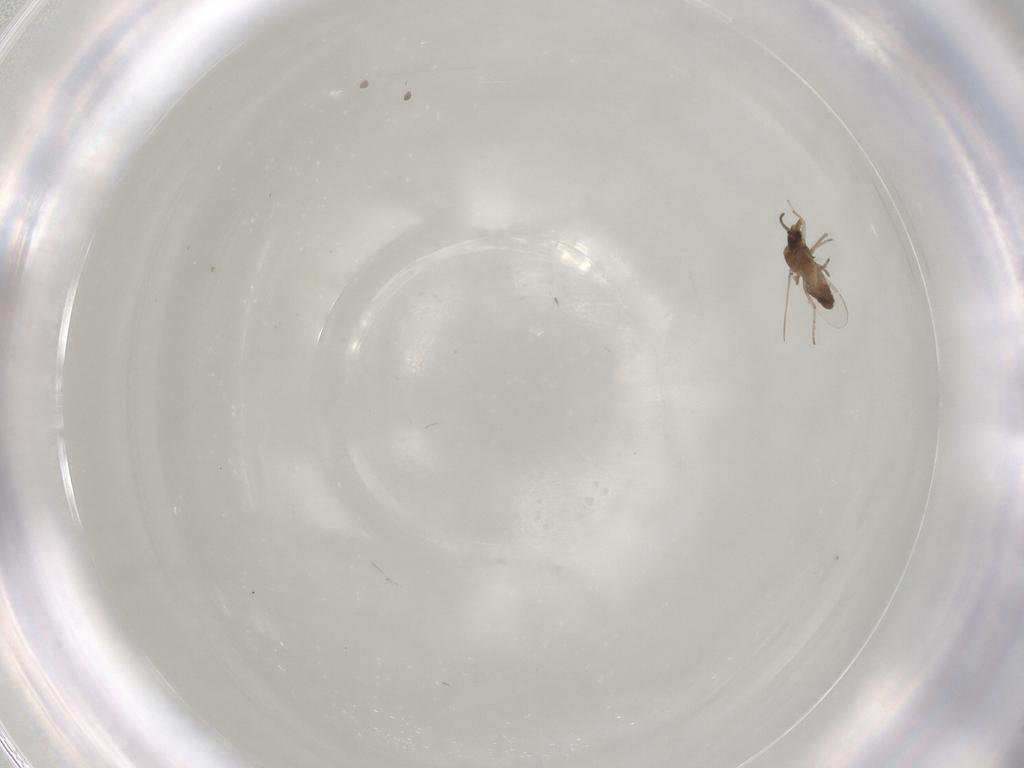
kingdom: Animalia
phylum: Arthropoda
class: Insecta
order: Diptera
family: Ceratopogonidae
